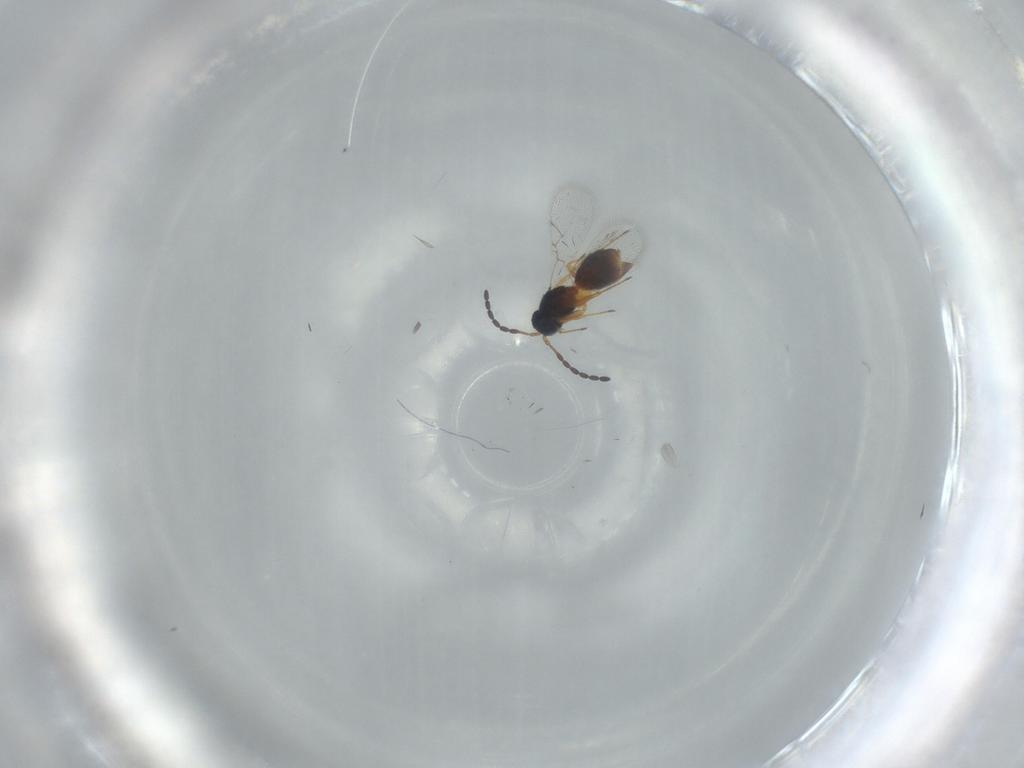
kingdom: Animalia
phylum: Arthropoda
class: Insecta
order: Hymenoptera
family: Figitidae
